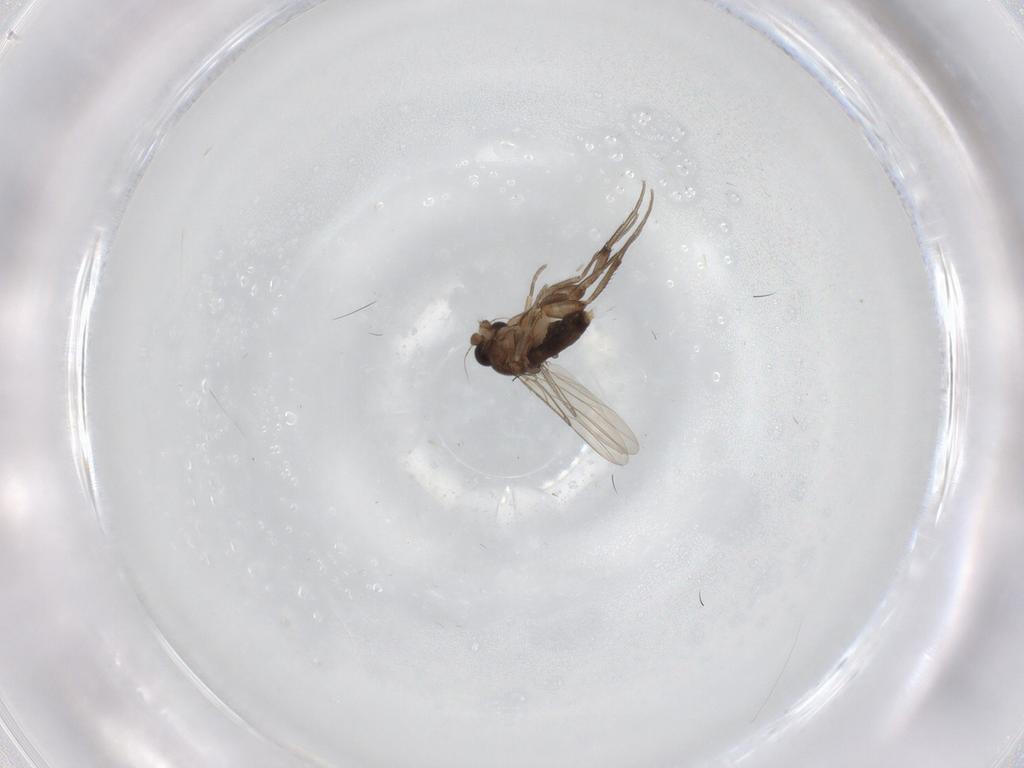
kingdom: Animalia
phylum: Arthropoda
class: Insecta
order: Diptera
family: Phoridae
